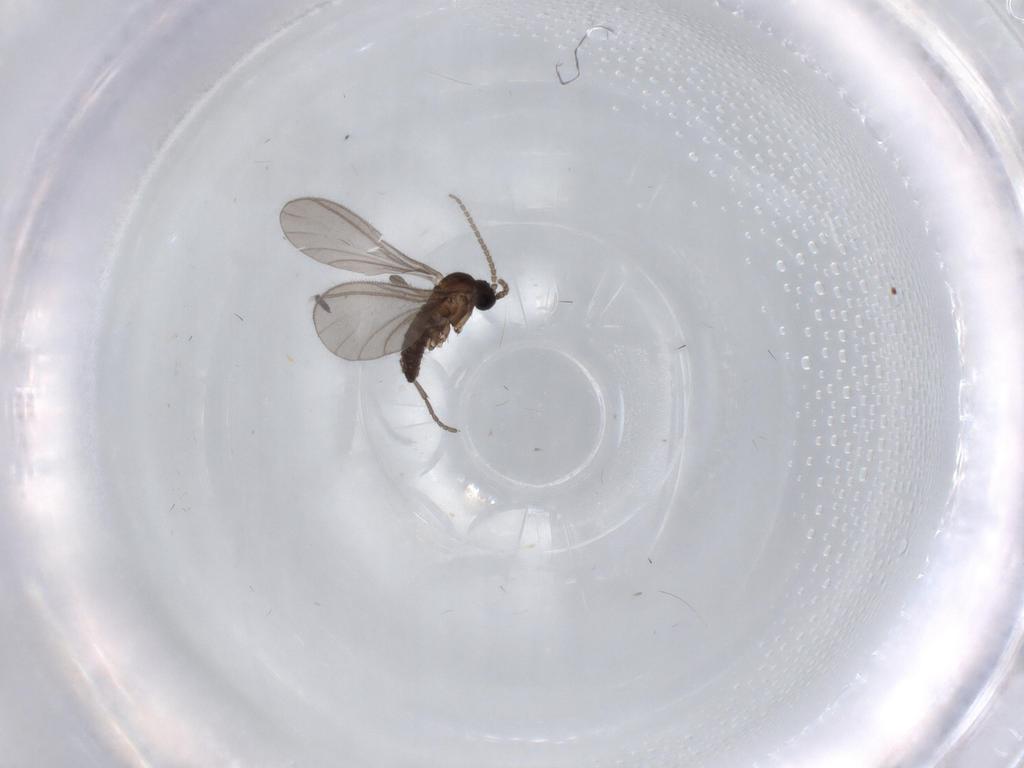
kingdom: Animalia
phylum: Arthropoda
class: Insecta
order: Diptera
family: Sciaridae
